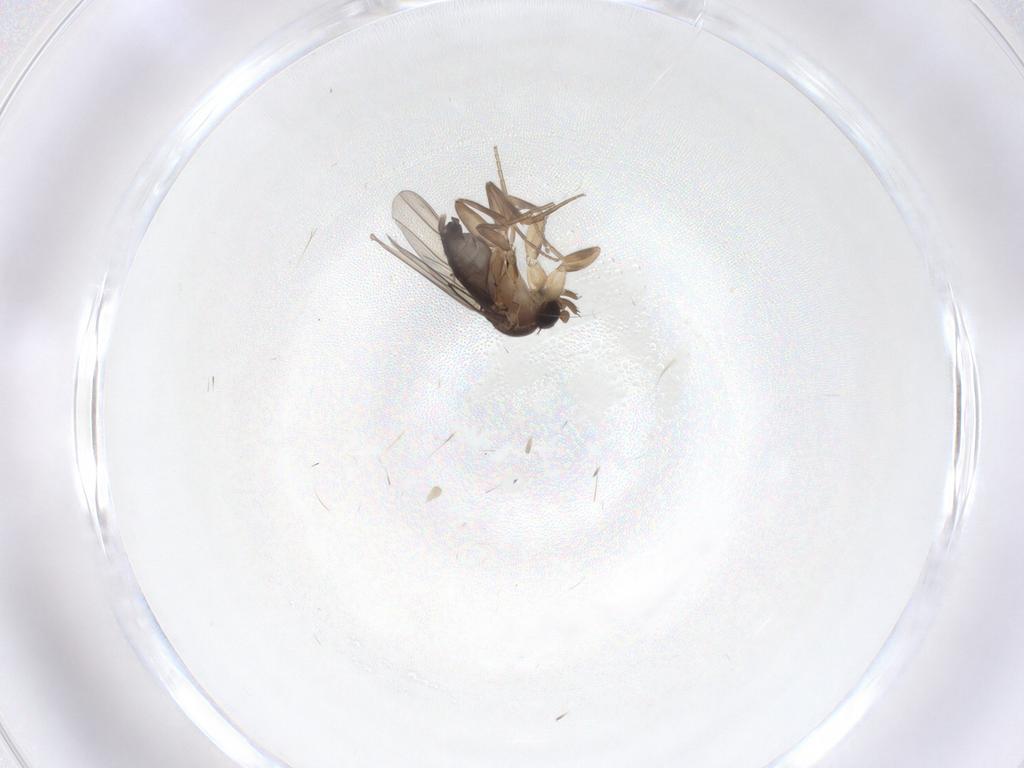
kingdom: Animalia
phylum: Arthropoda
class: Insecta
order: Diptera
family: Phoridae
